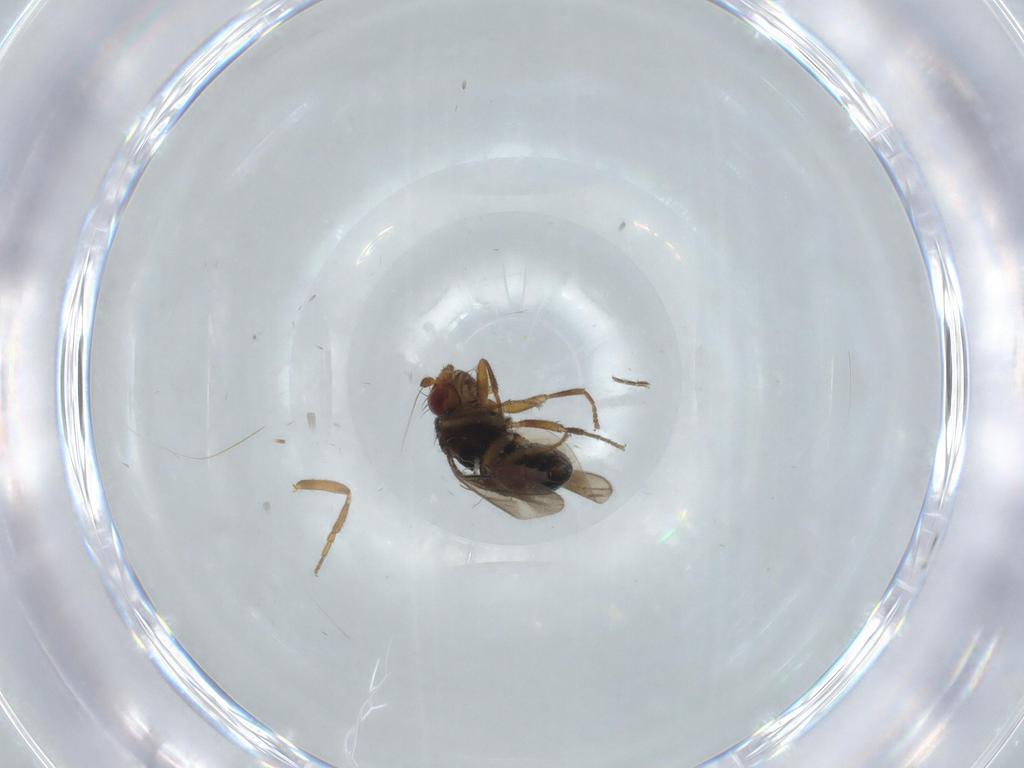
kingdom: Animalia
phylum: Arthropoda
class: Insecta
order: Diptera
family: Sphaeroceridae
